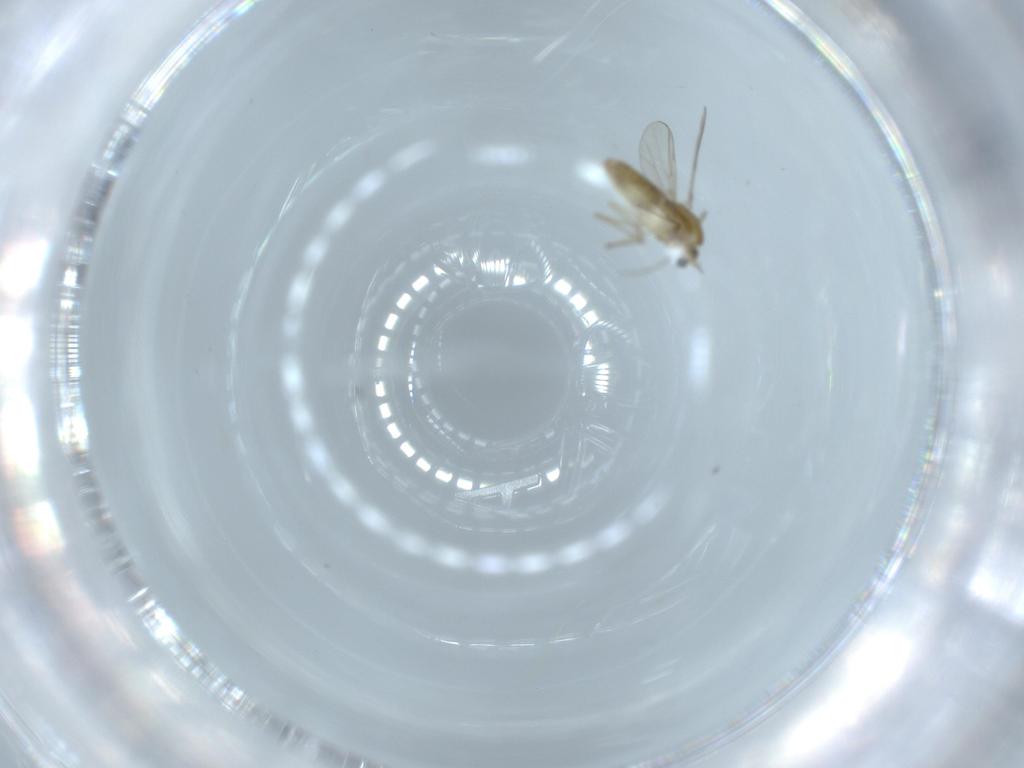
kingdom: Animalia
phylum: Arthropoda
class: Insecta
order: Diptera
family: Chironomidae
